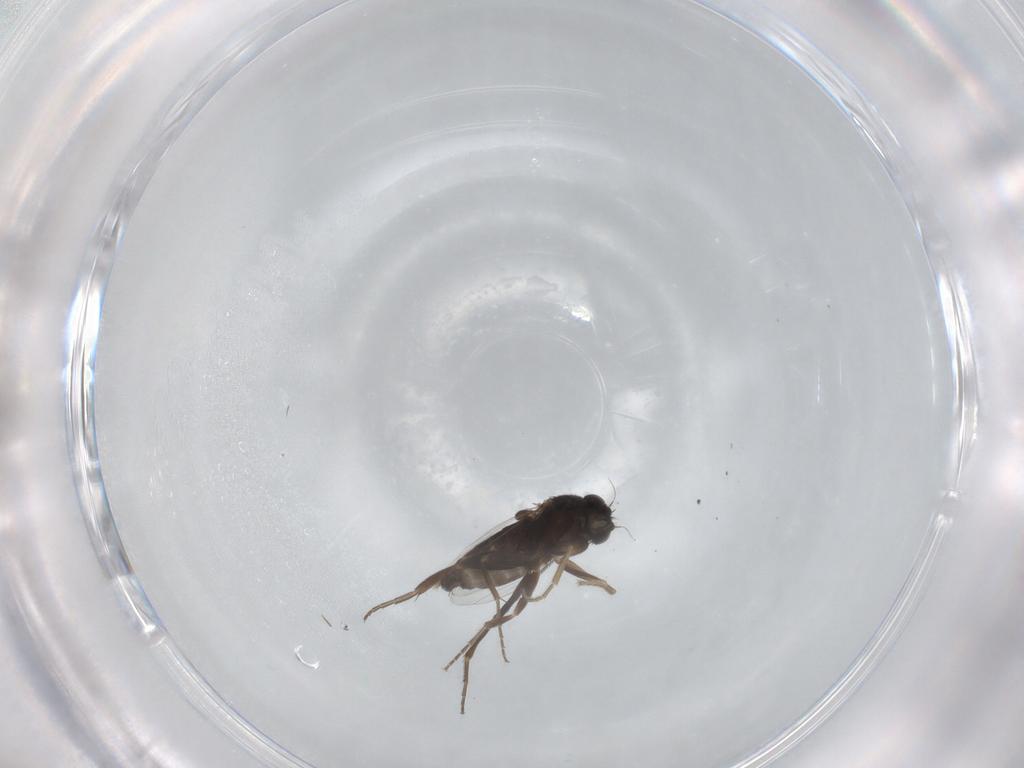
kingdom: Animalia
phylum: Arthropoda
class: Insecta
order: Diptera
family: Phoridae
